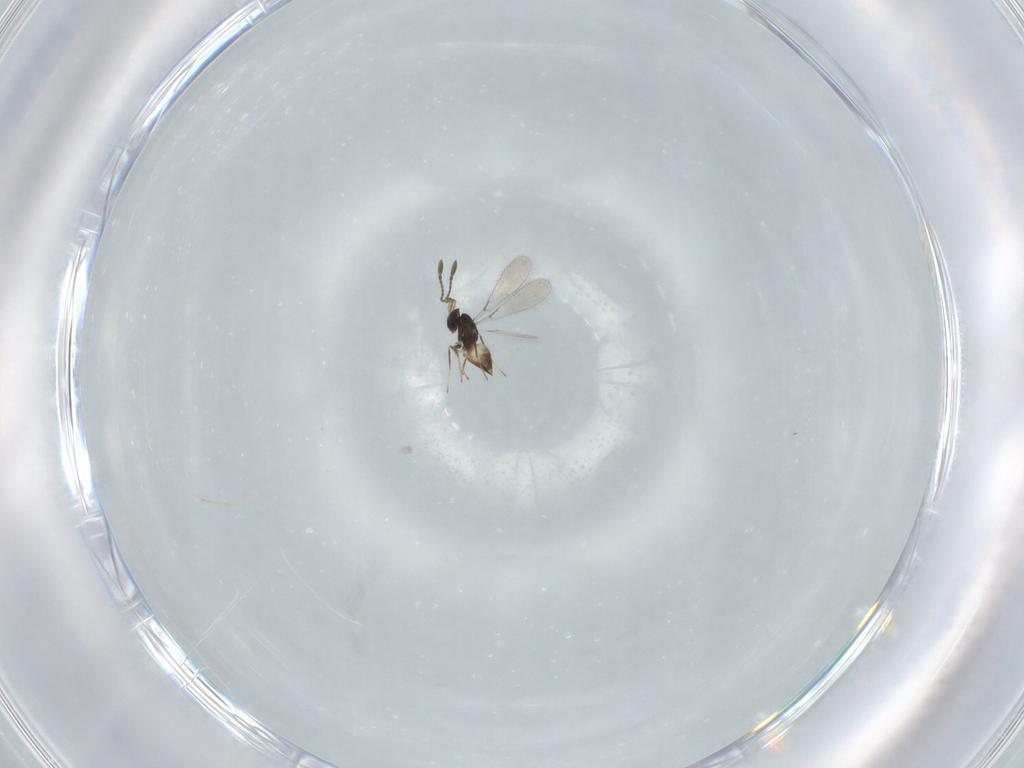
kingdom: Animalia
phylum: Arthropoda
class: Insecta
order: Hymenoptera
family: Mymaridae
